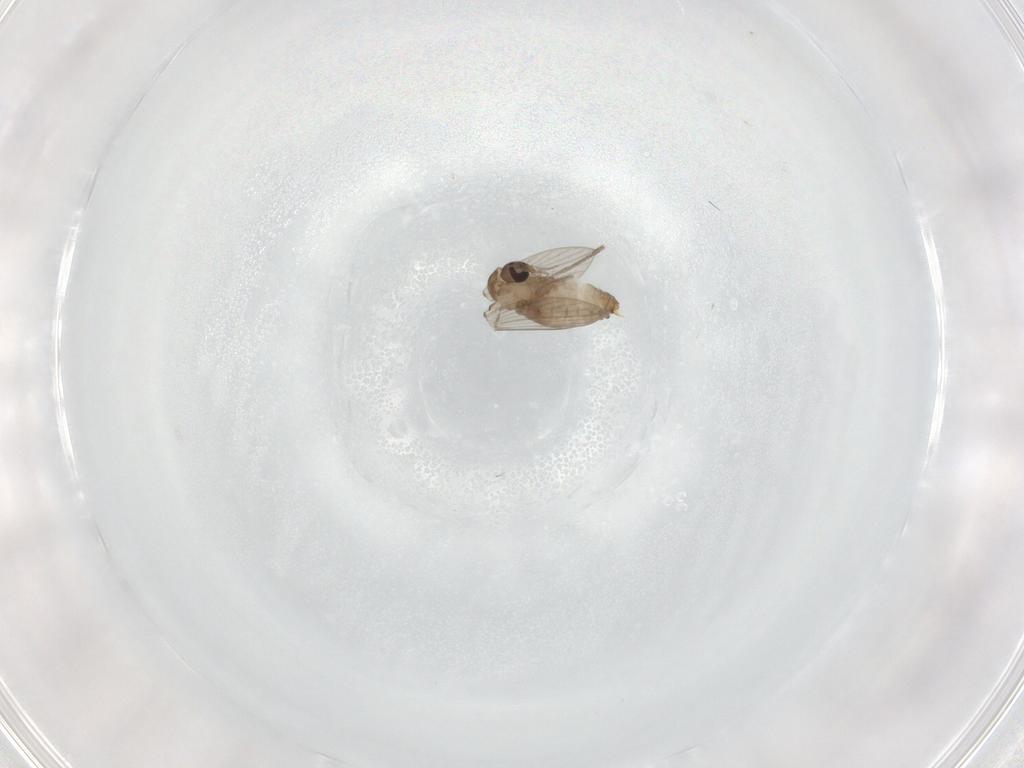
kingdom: Animalia
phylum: Arthropoda
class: Insecta
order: Diptera
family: Psychodidae
